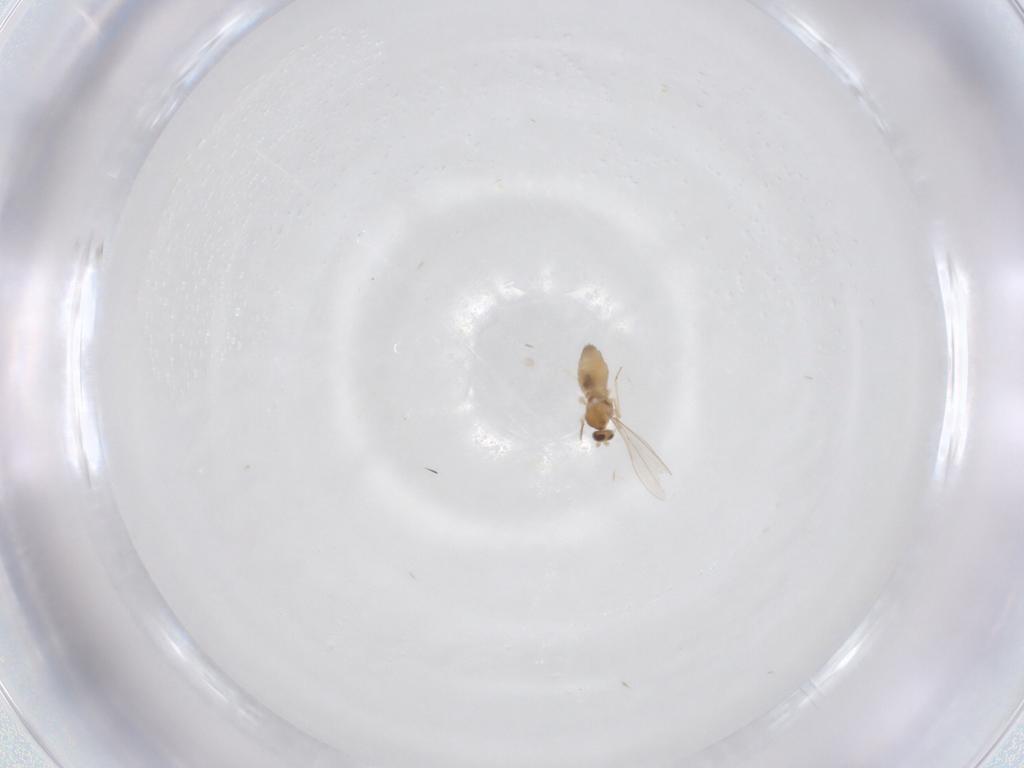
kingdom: Animalia
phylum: Arthropoda
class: Insecta
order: Diptera
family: Cecidomyiidae
